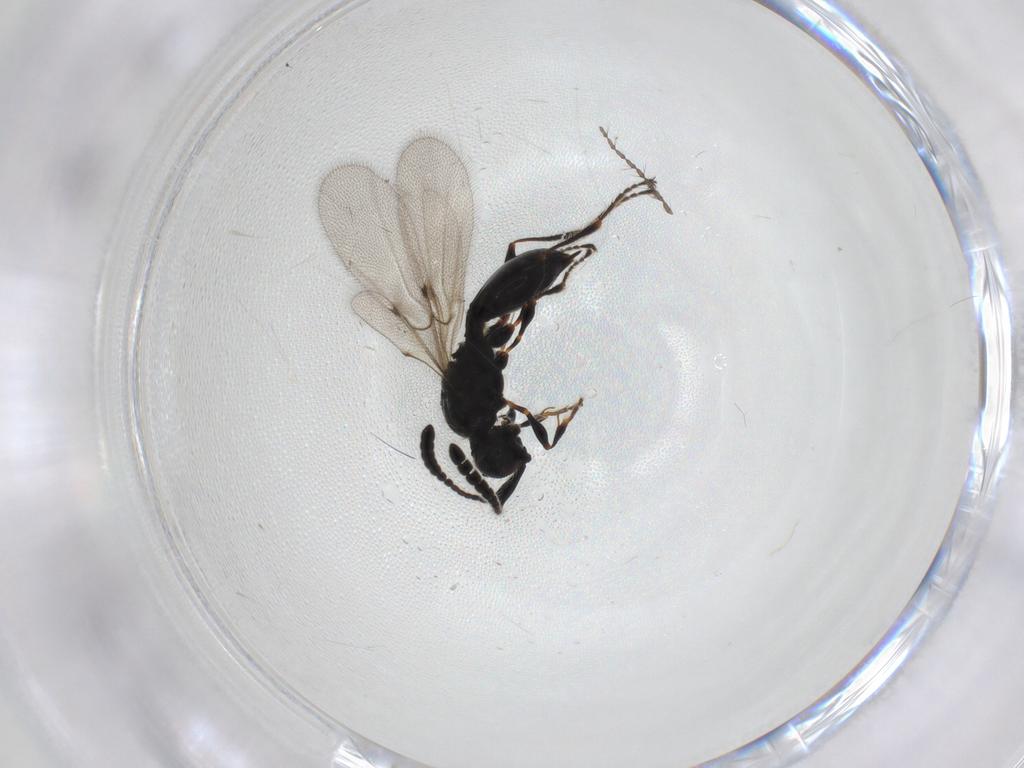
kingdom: Animalia
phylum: Arthropoda
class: Insecta
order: Hymenoptera
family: Diapriidae
